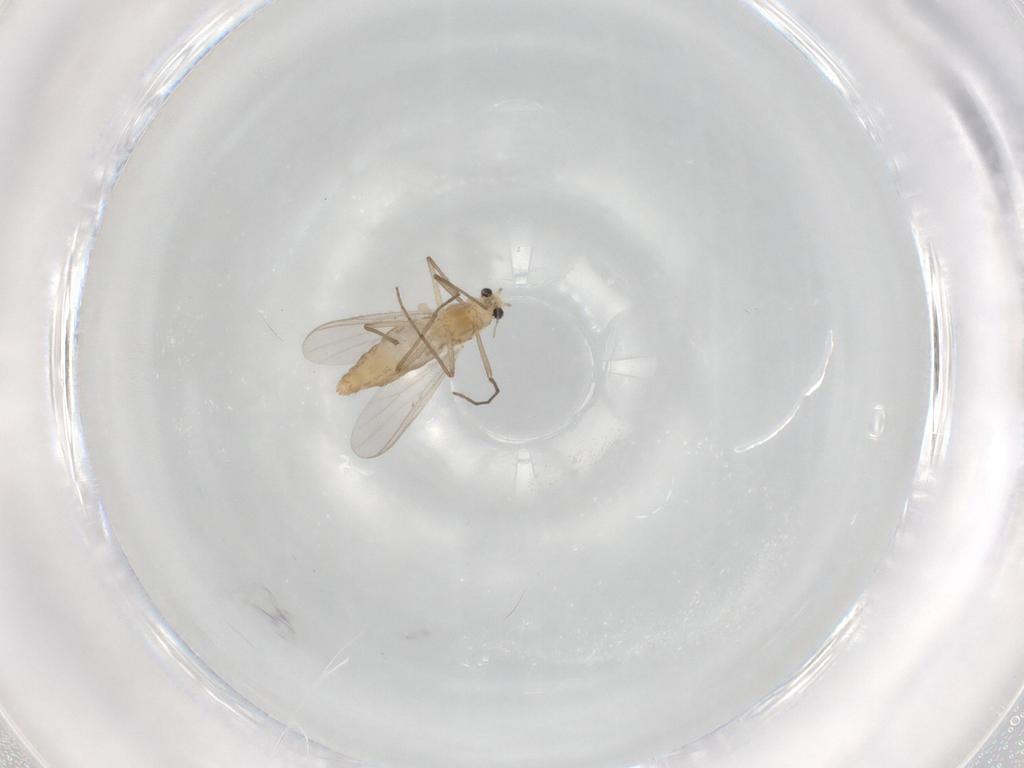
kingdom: Animalia
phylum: Arthropoda
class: Insecta
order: Diptera
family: Chironomidae
